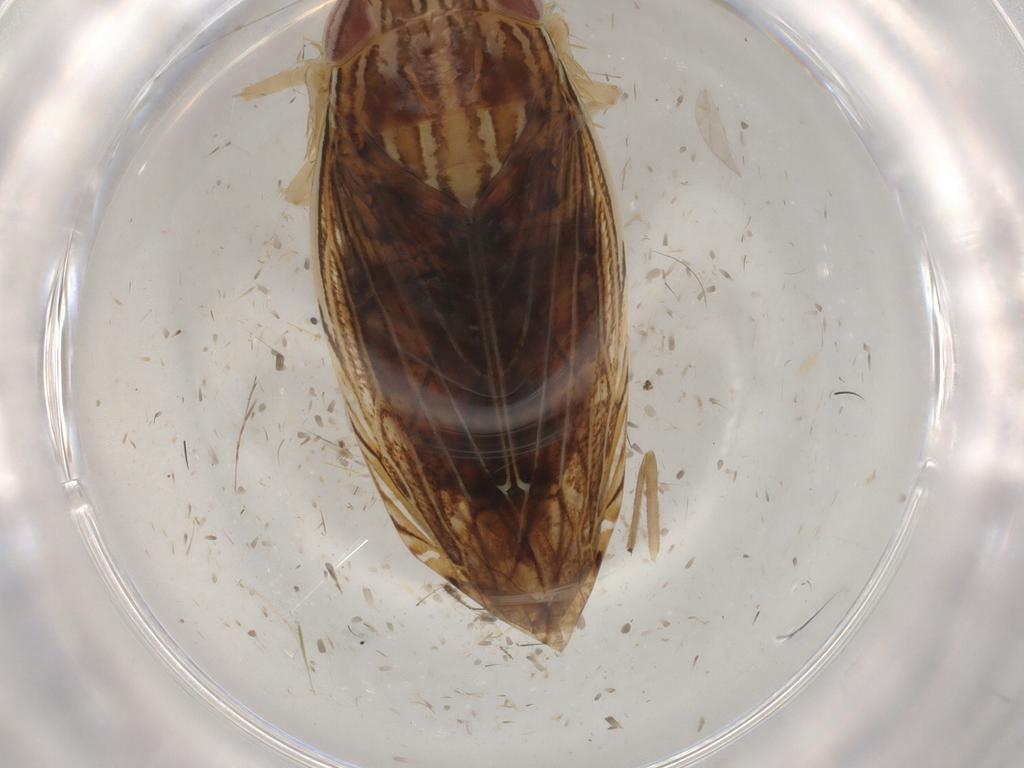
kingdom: Animalia
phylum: Arthropoda
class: Insecta
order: Hemiptera
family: Cicadellidae
